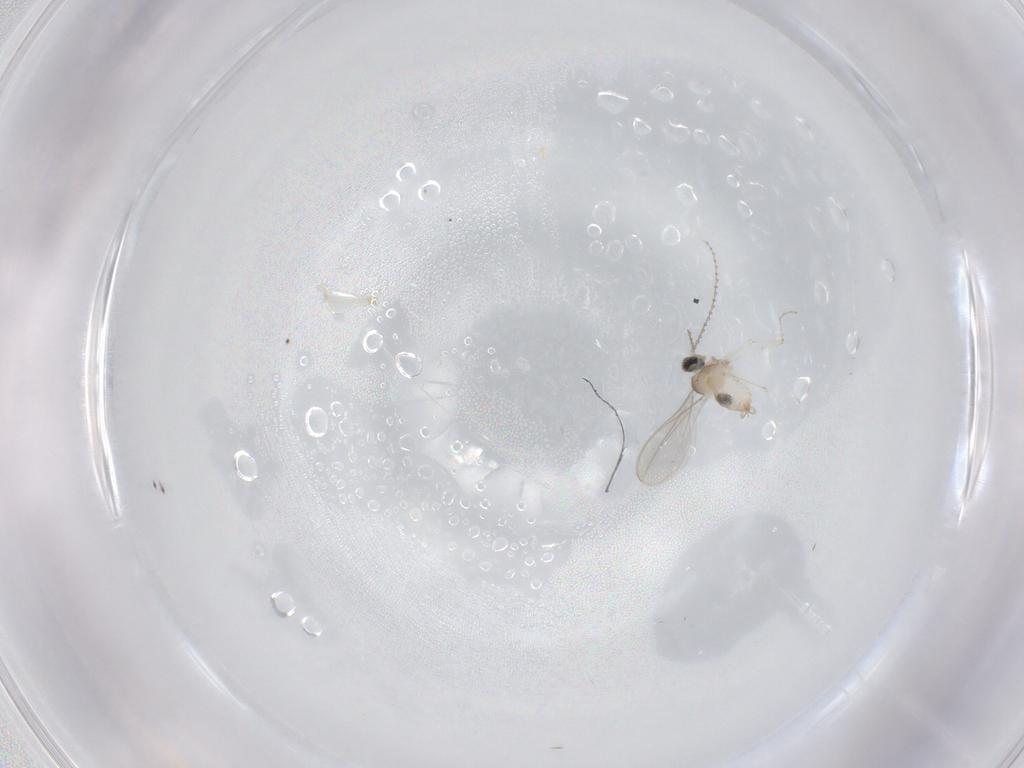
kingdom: Animalia
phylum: Arthropoda
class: Insecta
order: Diptera
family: Cecidomyiidae
